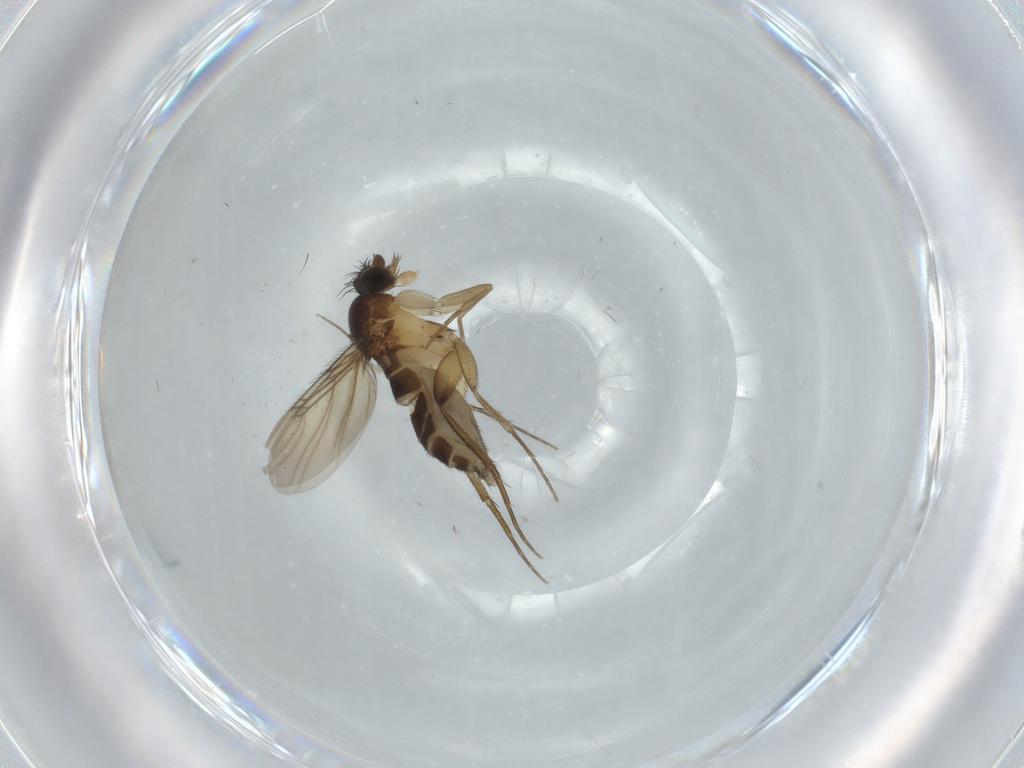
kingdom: Animalia
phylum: Arthropoda
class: Insecta
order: Diptera
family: Phoridae
